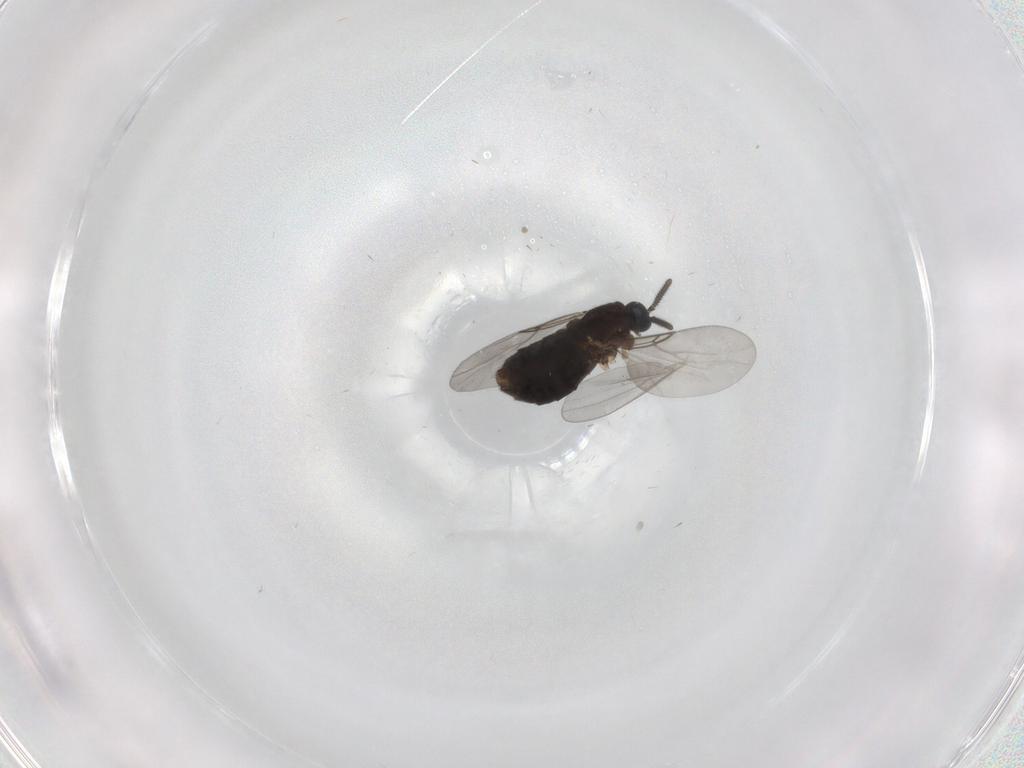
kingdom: Animalia
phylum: Arthropoda
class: Insecta
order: Diptera
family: Scatopsidae
